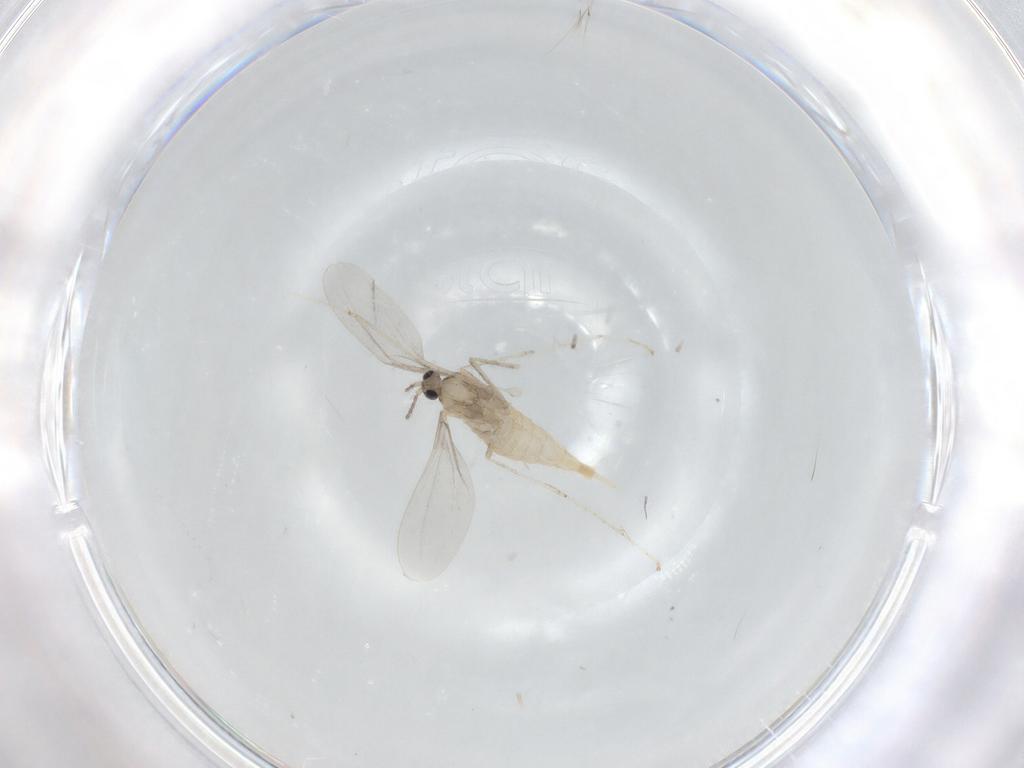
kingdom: Animalia
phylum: Arthropoda
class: Insecta
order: Diptera
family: Cecidomyiidae
